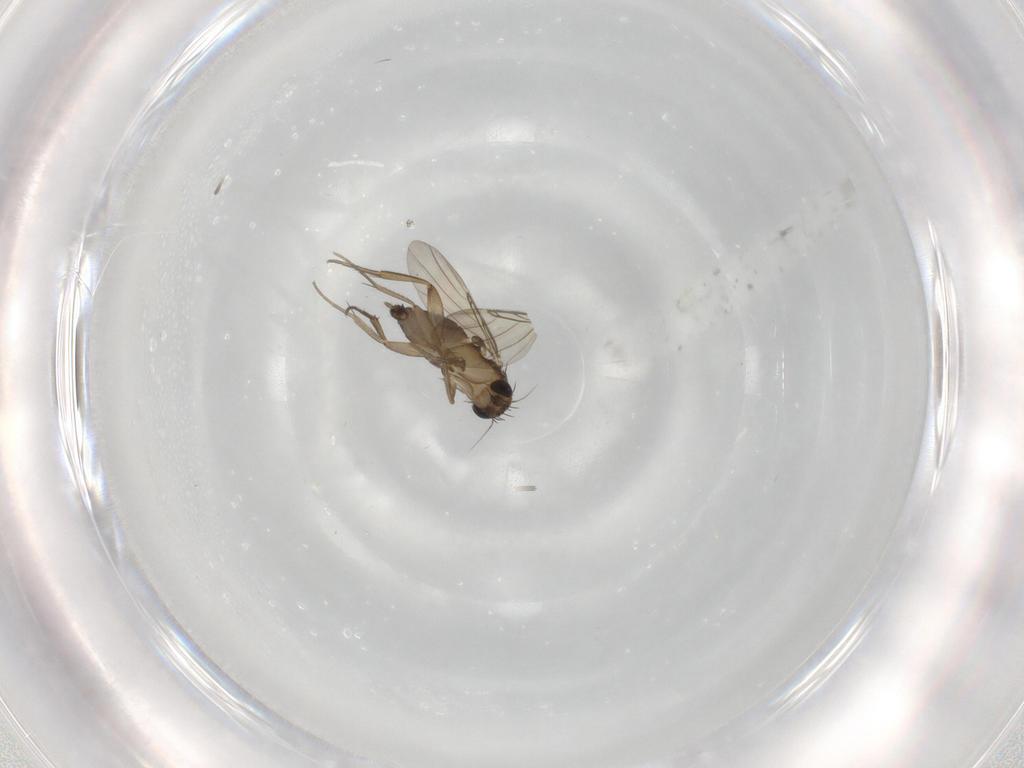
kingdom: Animalia
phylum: Arthropoda
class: Insecta
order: Diptera
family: Phoridae
